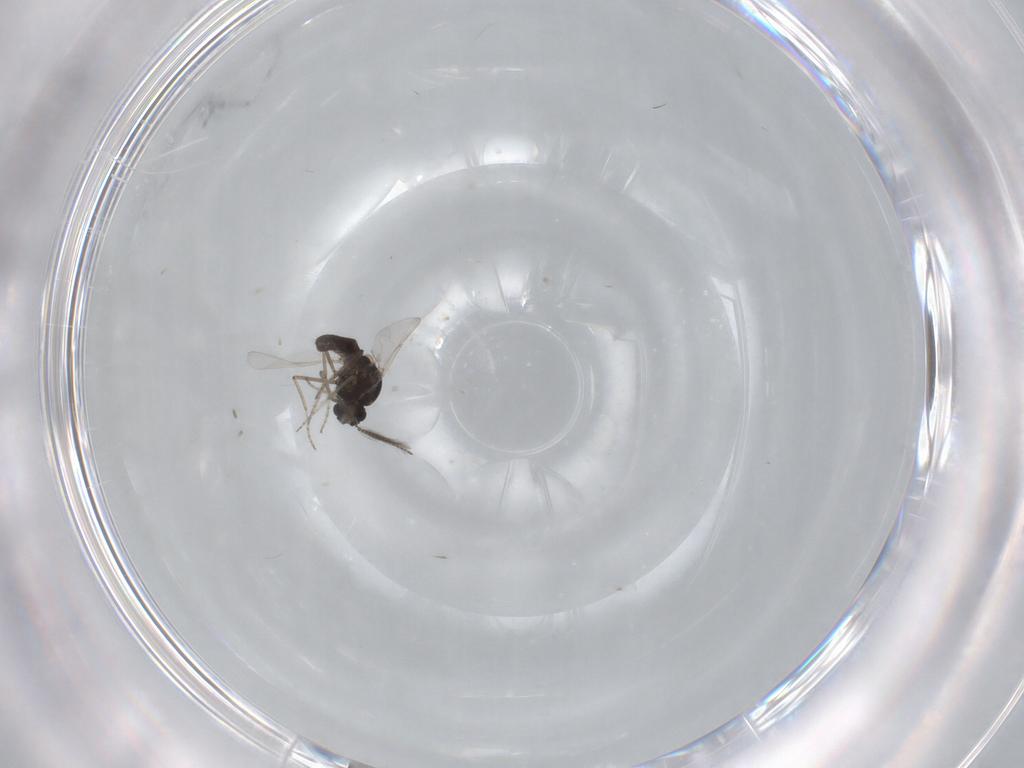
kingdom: Animalia
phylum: Arthropoda
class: Insecta
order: Diptera
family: Ceratopogonidae
